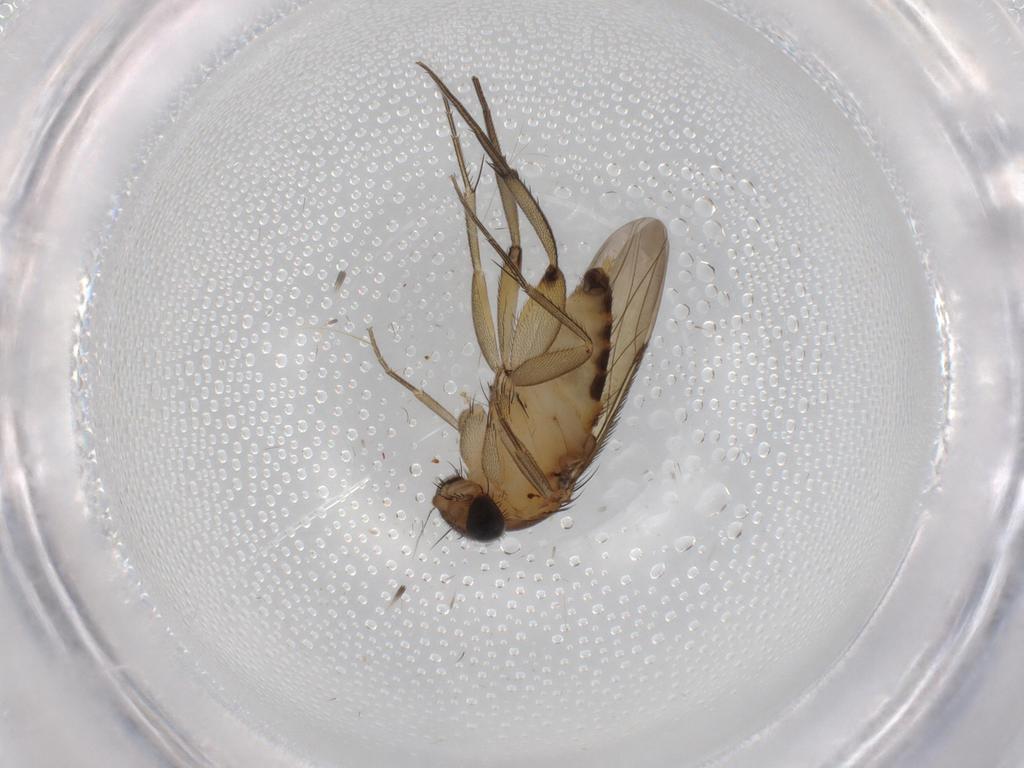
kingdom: Animalia
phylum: Arthropoda
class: Insecta
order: Diptera
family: Phoridae
